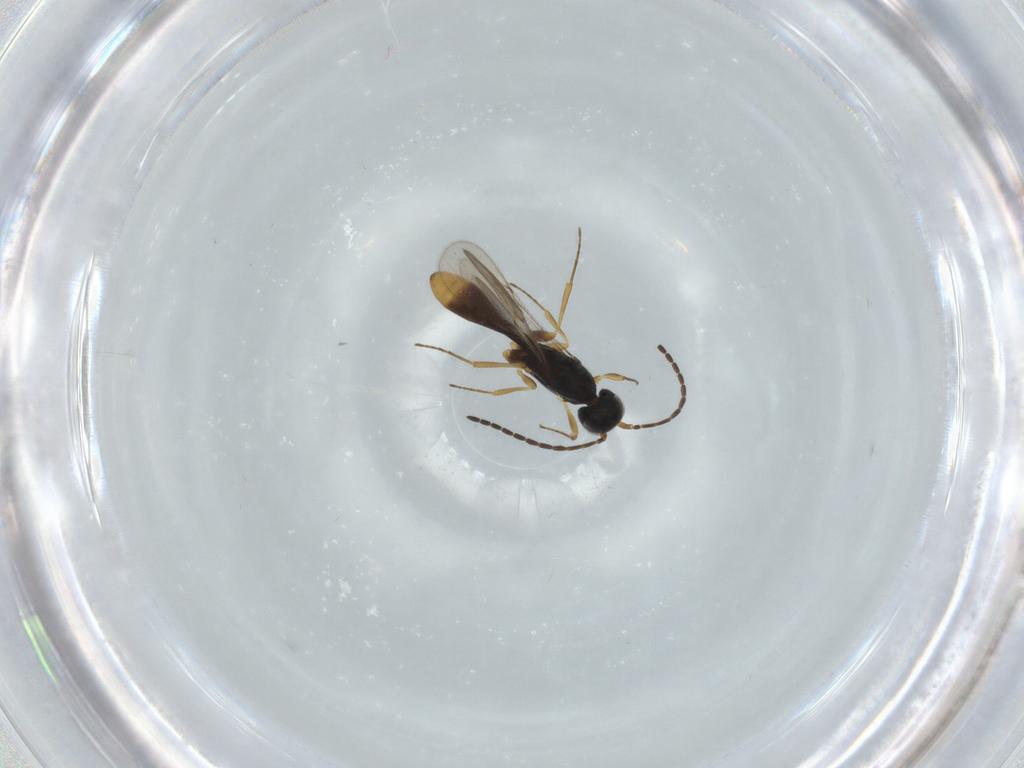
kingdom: Animalia
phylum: Arthropoda
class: Insecta
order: Hymenoptera
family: Scelionidae
